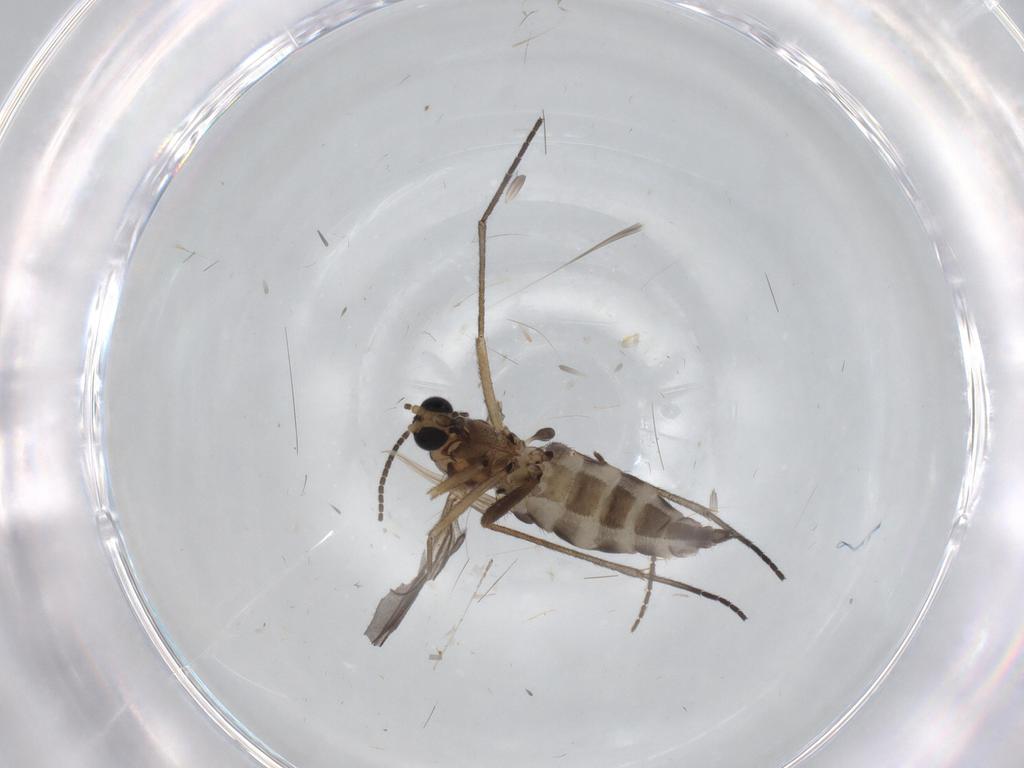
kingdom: Animalia
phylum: Arthropoda
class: Insecta
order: Diptera
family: Sciaridae
